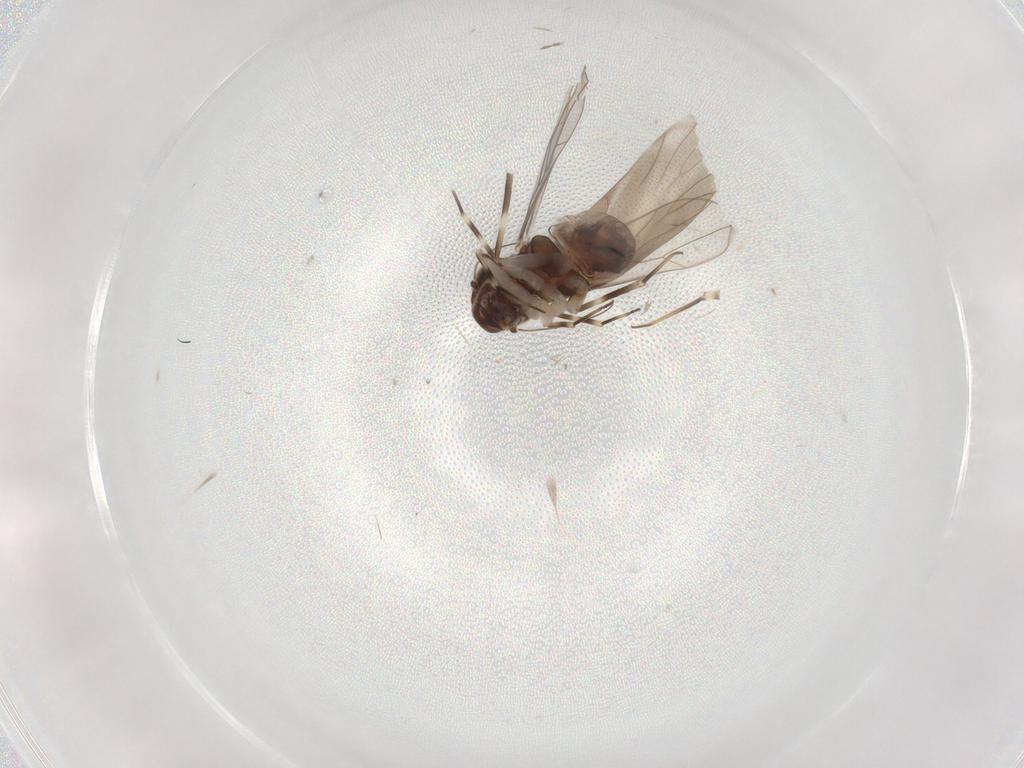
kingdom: Animalia
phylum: Arthropoda
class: Insecta
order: Psocodea
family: Amphientomidae
